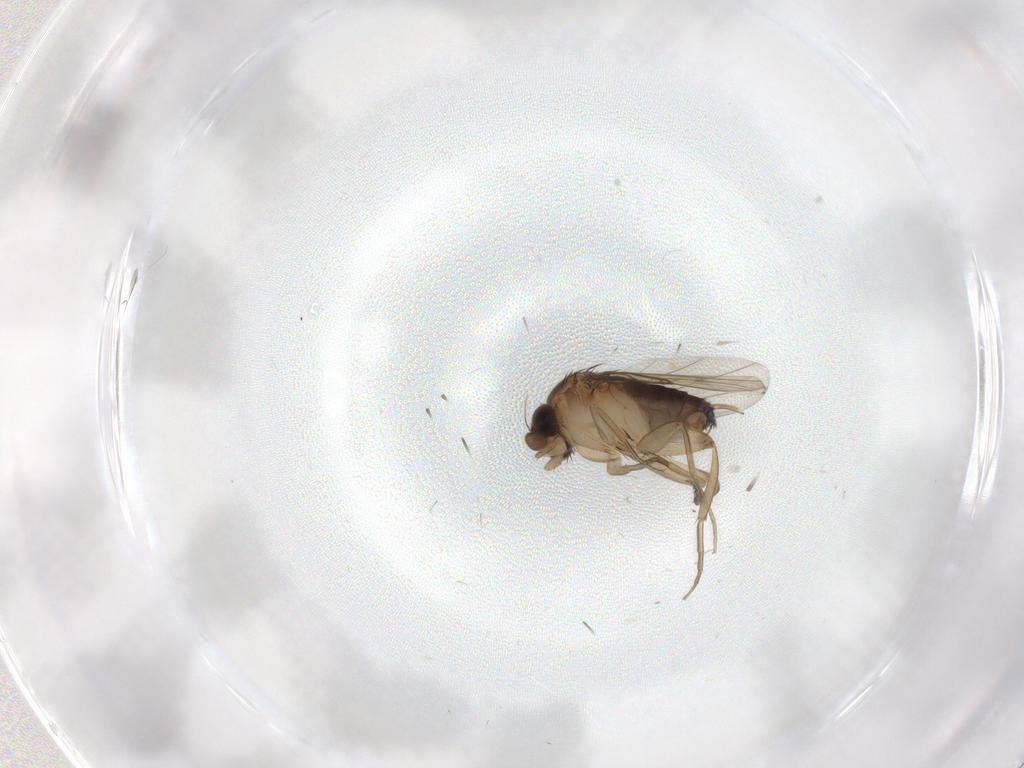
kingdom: Animalia
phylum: Arthropoda
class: Insecta
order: Diptera
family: Phoridae
